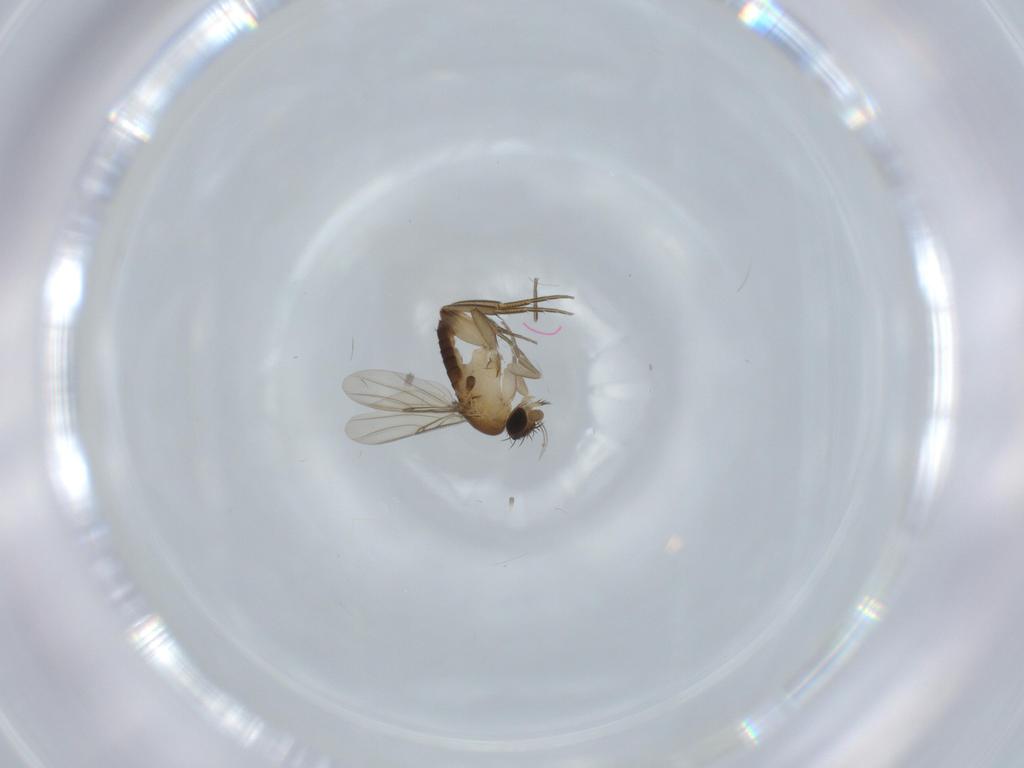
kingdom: Animalia
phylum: Arthropoda
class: Insecta
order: Diptera
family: Phoridae
